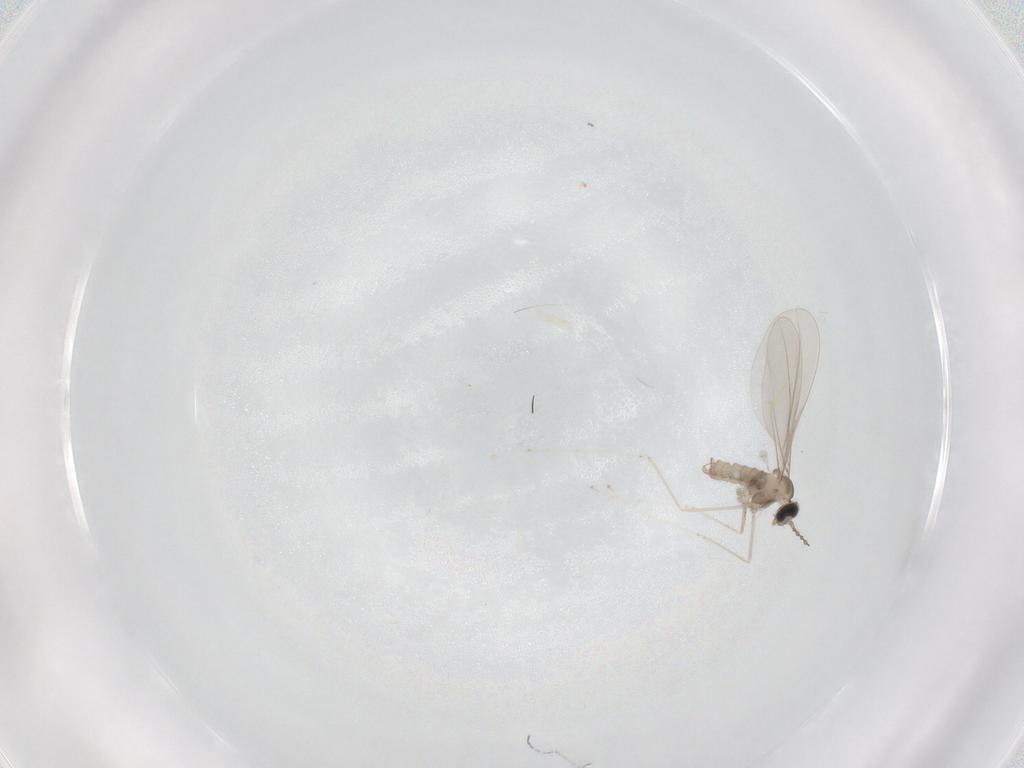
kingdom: Animalia
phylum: Arthropoda
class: Insecta
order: Diptera
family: Cecidomyiidae
